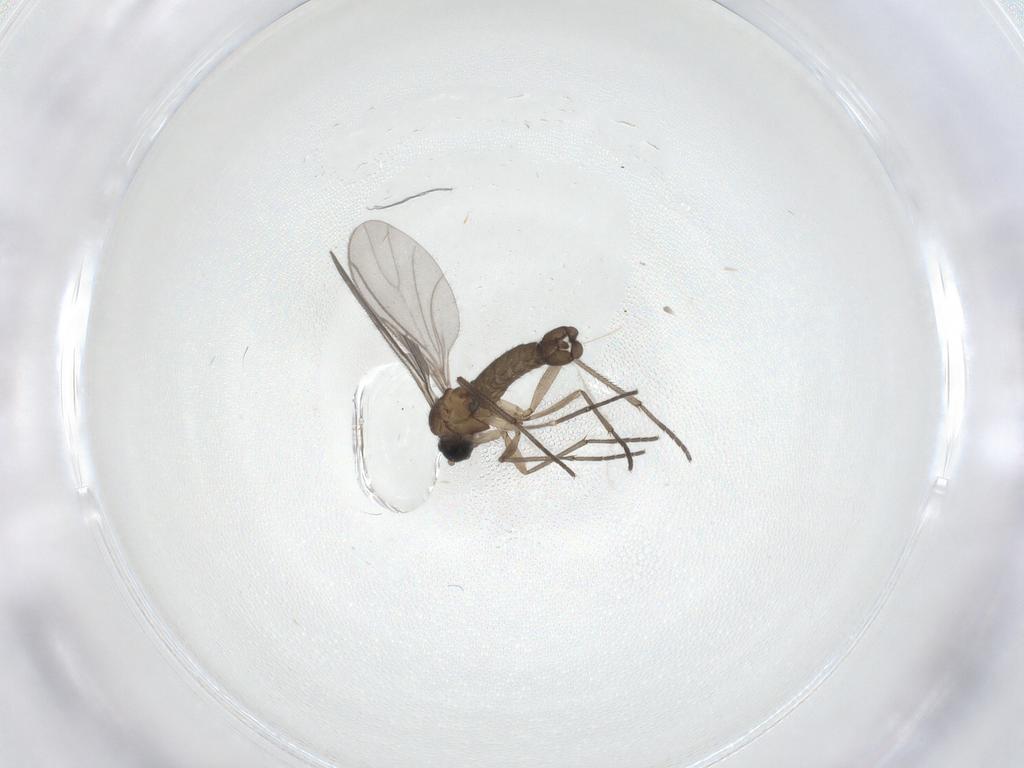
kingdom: Animalia
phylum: Arthropoda
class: Insecta
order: Diptera
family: Sciaridae
